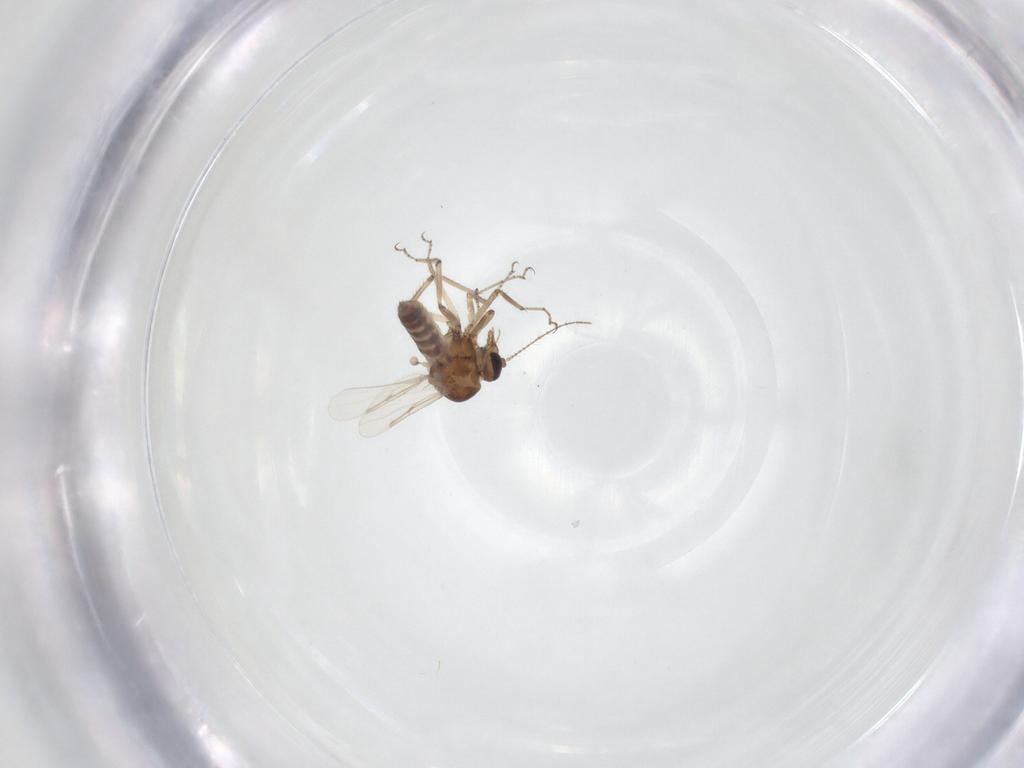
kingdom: Animalia
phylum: Arthropoda
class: Insecta
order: Diptera
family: Ceratopogonidae
